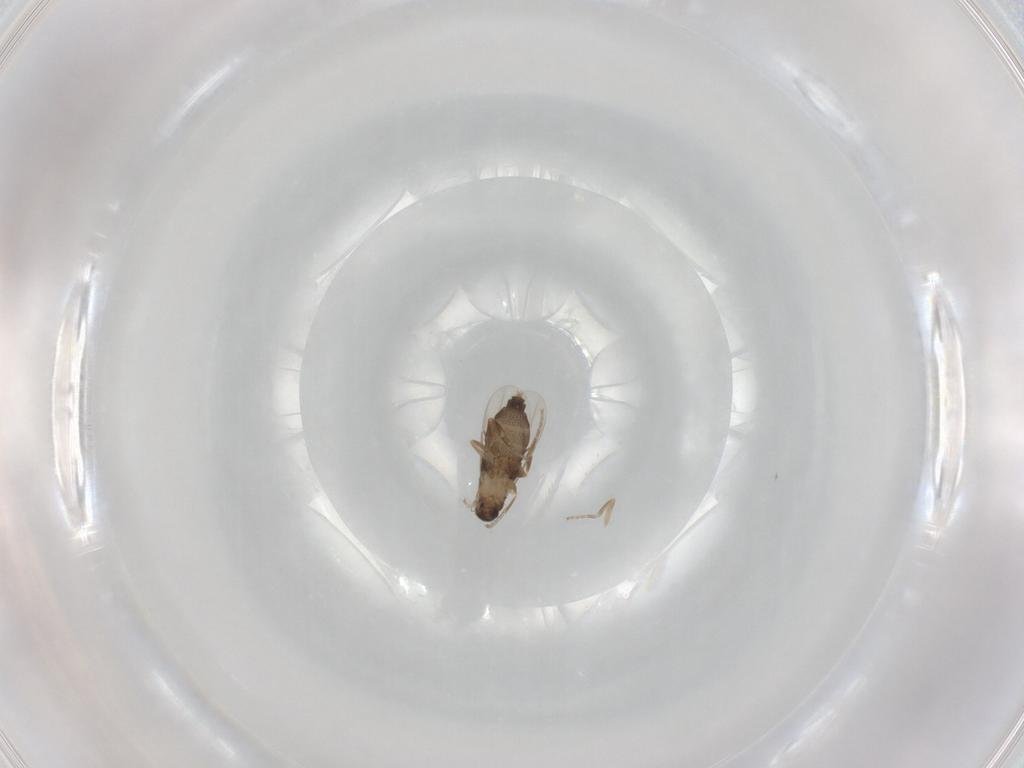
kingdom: Animalia
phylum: Arthropoda
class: Insecta
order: Diptera
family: Phoridae
